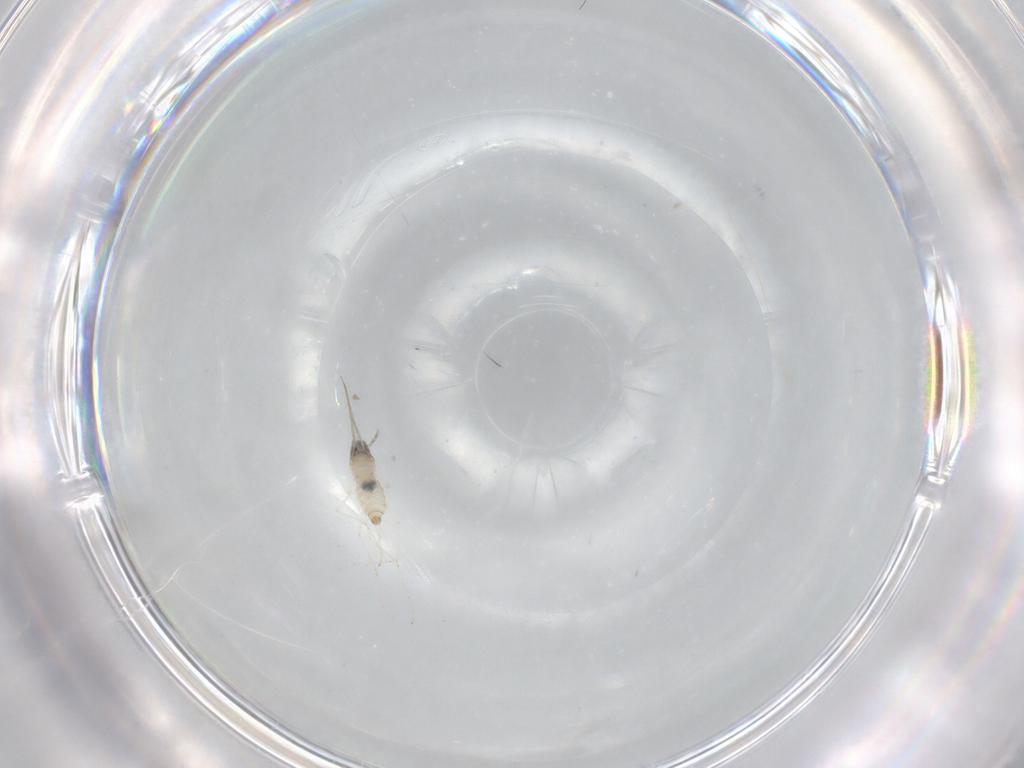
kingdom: Animalia
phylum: Arthropoda
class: Insecta
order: Diptera
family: Cecidomyiidae
